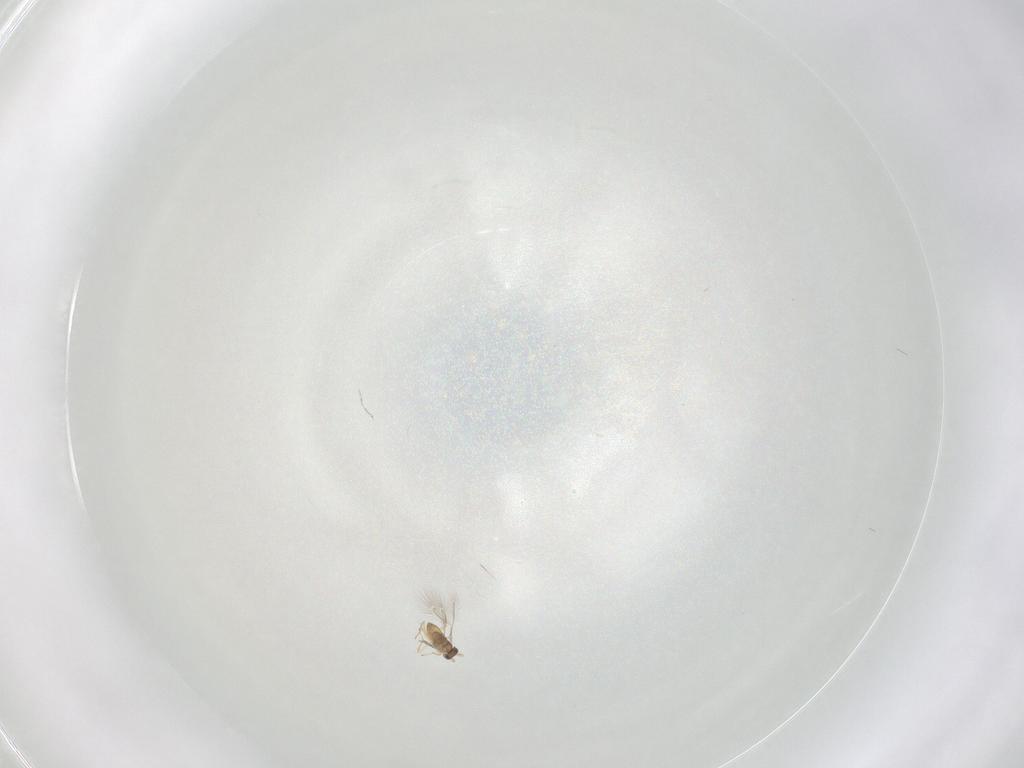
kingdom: Animalia
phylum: Arthropoda
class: Insecta
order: Hymenoptera
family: Formicidae
